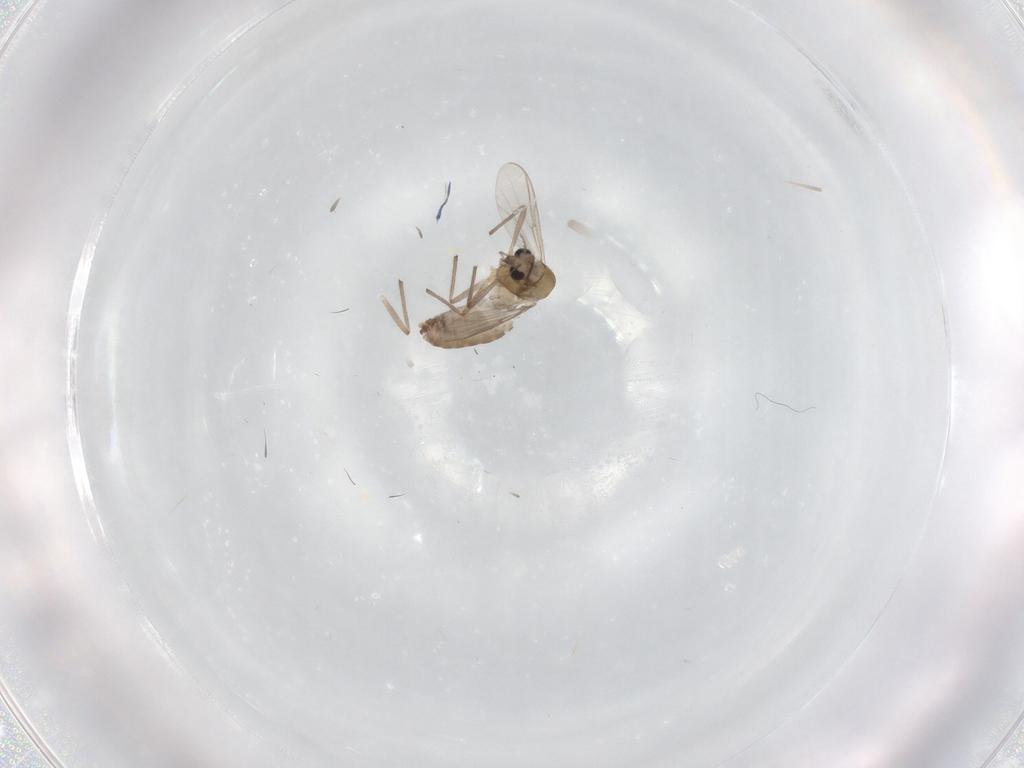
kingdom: Animalia
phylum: Arthropoda
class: Insecta
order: Diptera
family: Chironomidae
